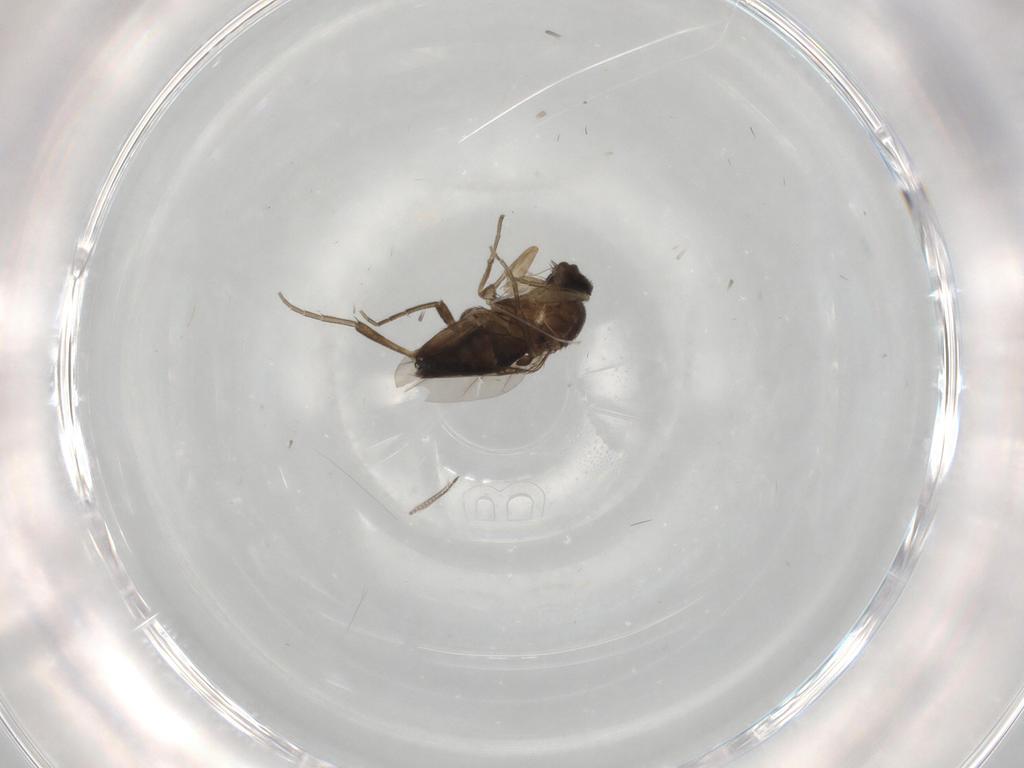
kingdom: Animalia
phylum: Arthropoda
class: Insecta
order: Diptera
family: Phoridae
